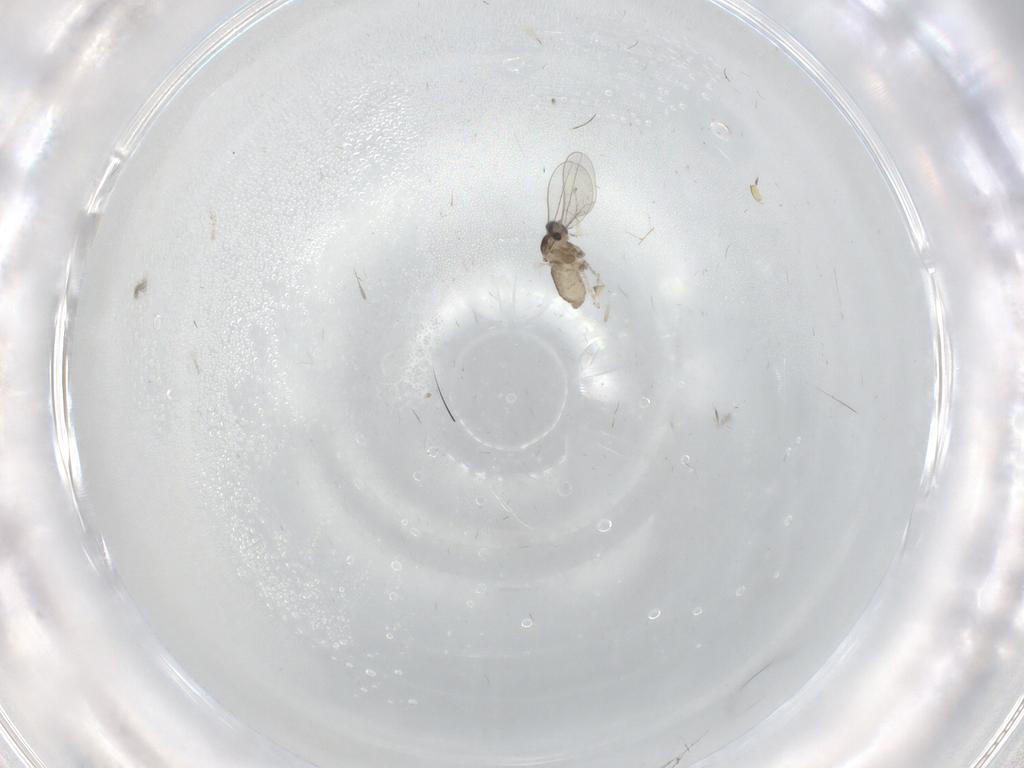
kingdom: Animalia
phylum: Arthropoda
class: Insecta
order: Diptera
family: Cecidomyiidae
